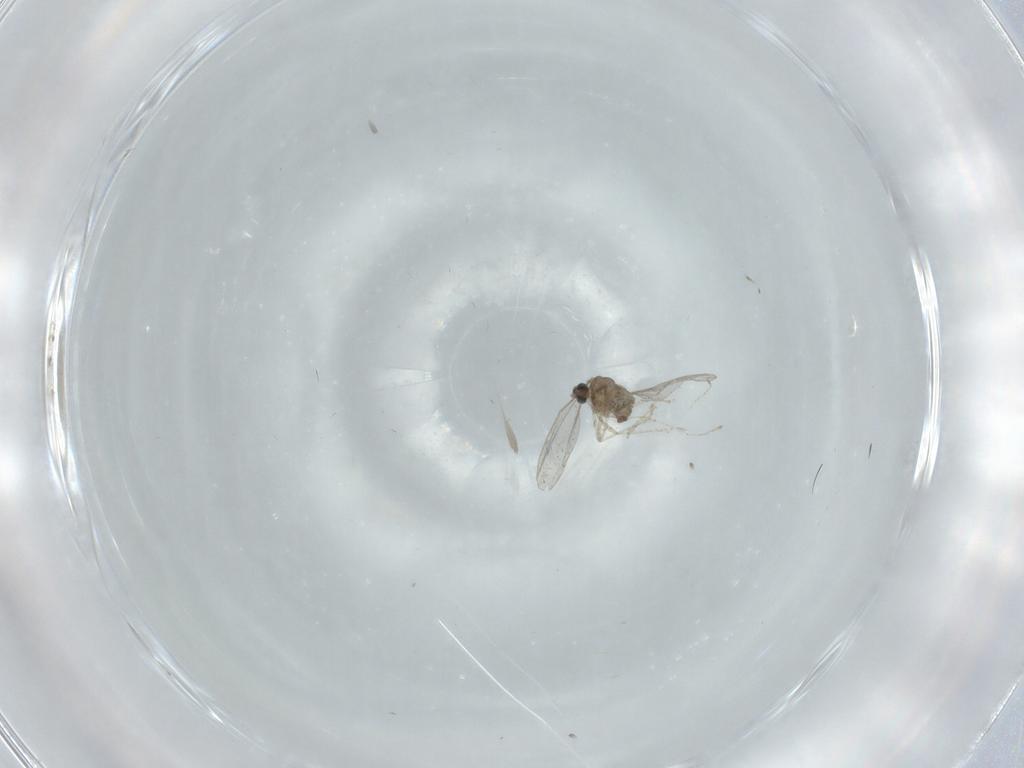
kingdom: Animalia
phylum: Arthropoda
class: Insecta
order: Diptera
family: Cecidomyiidae
